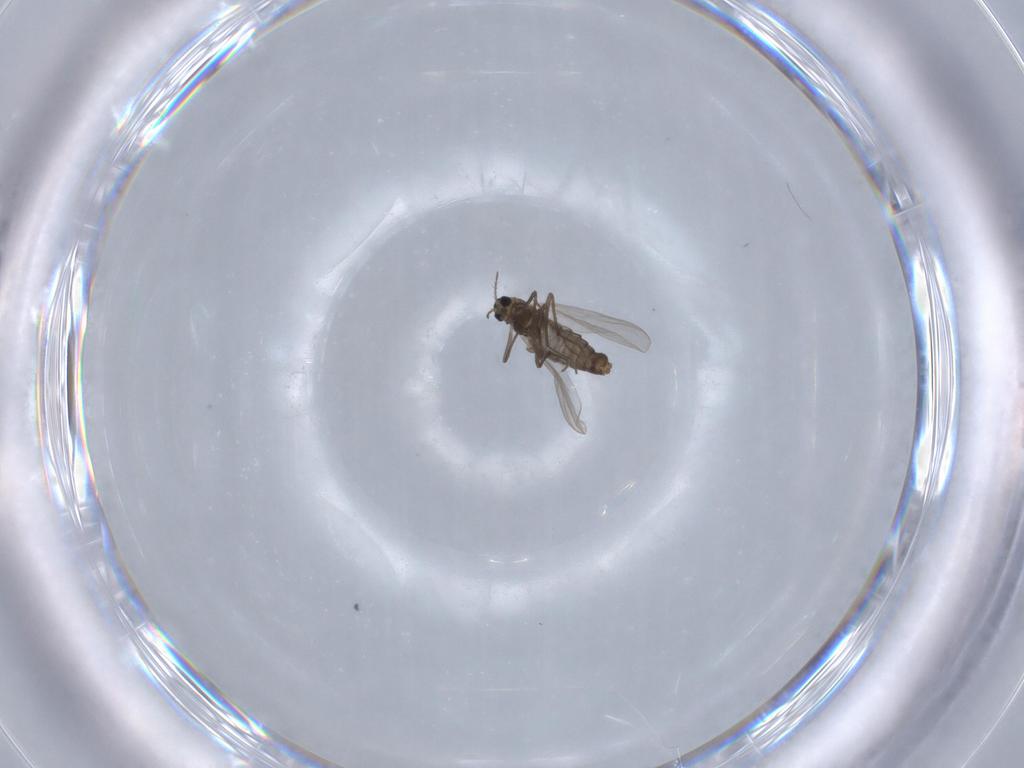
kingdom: Animalia
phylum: Arthropoda
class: Insecta
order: Diptera
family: Chironomidae
